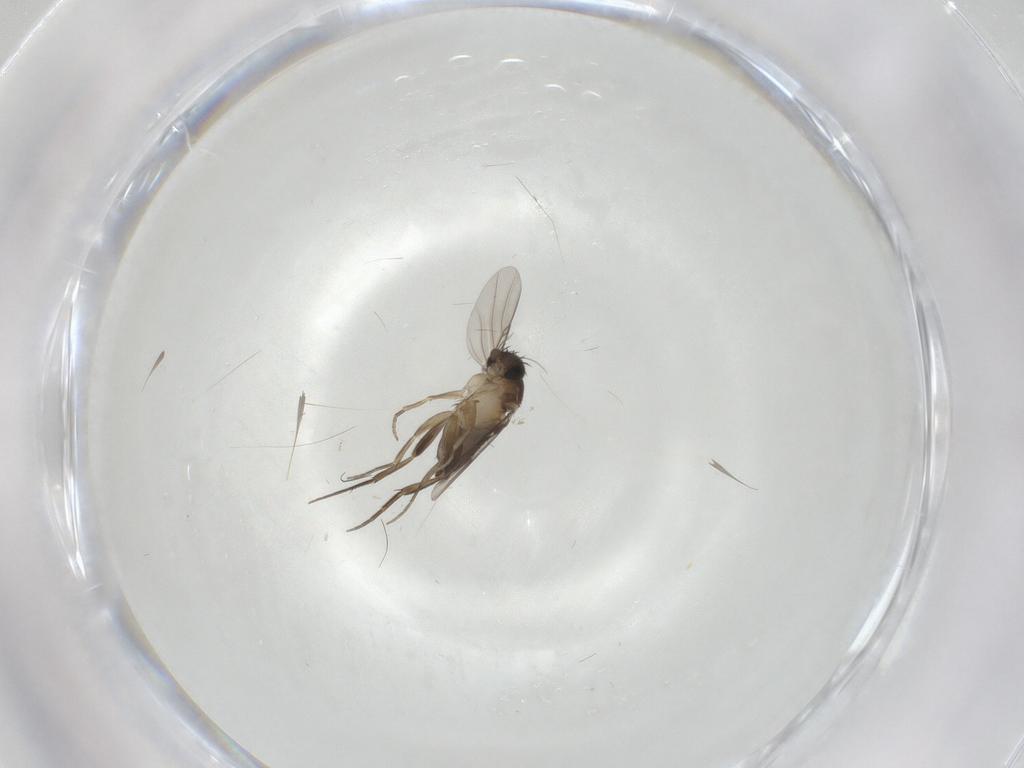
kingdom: Animalia
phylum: Arthropoda
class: Insecta
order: Diptera
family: Phoridae
